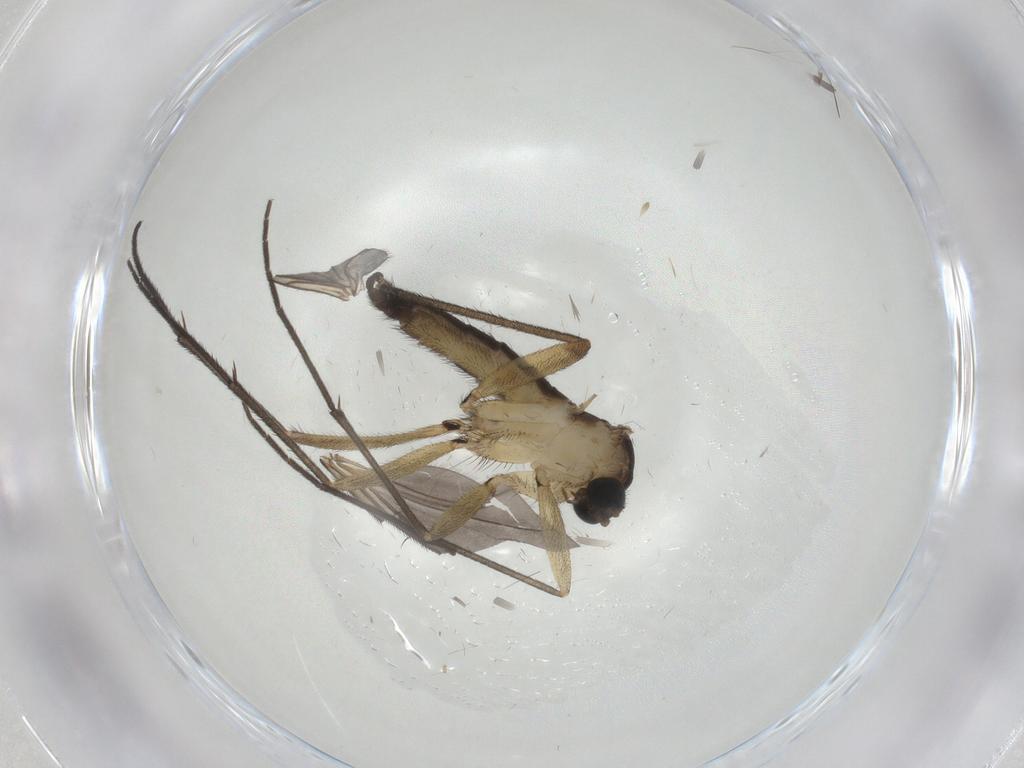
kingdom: Animalia
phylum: Arthropoda
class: Insecta
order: Diptera
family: Sciaridae
